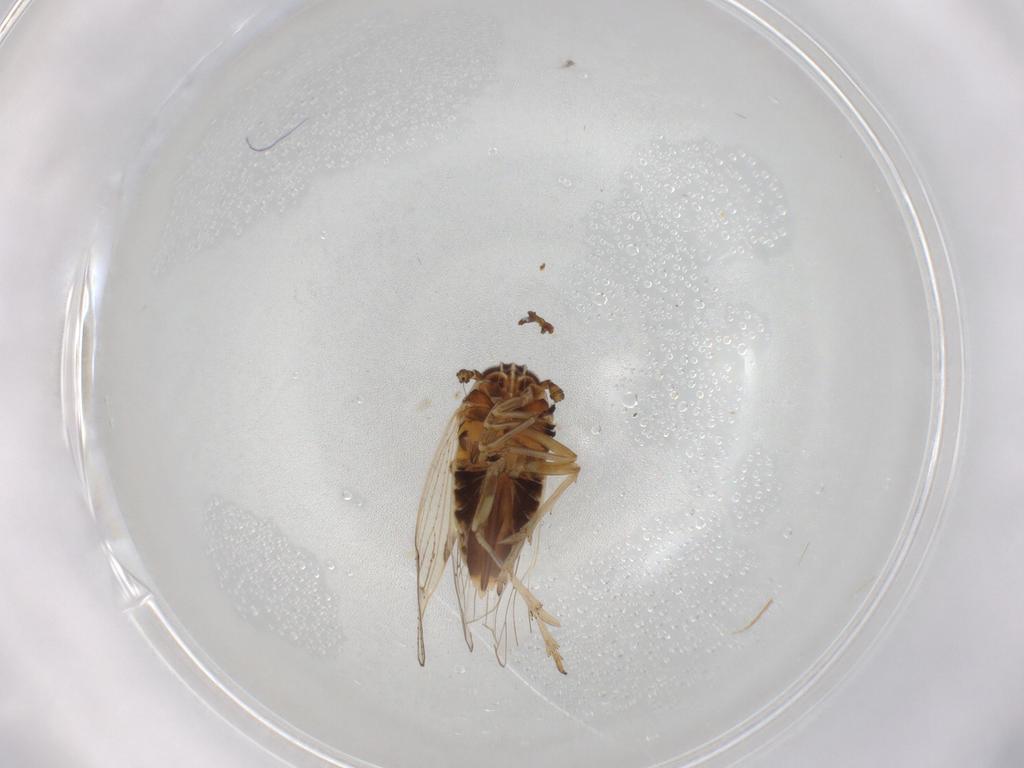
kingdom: Animalia
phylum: Arthropoda
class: Insecta
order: Hemiptera
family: Delphacidae
